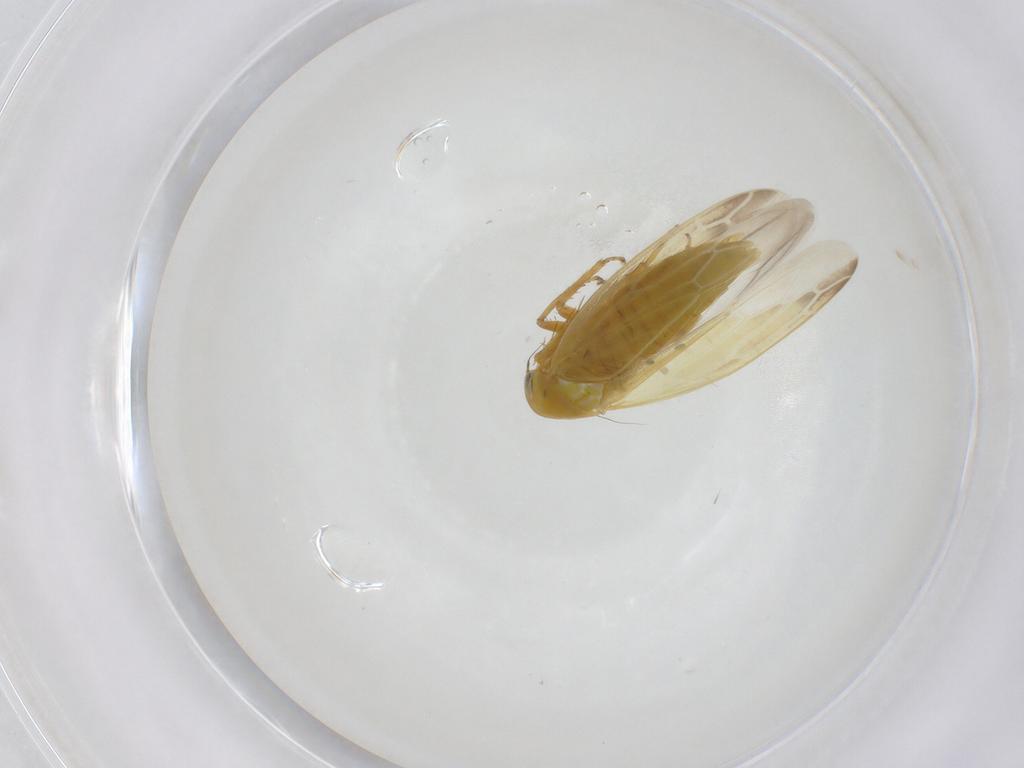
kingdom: Animalia
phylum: Arthropoda
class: Insecta
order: Hemiptera
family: Cicadellidae
